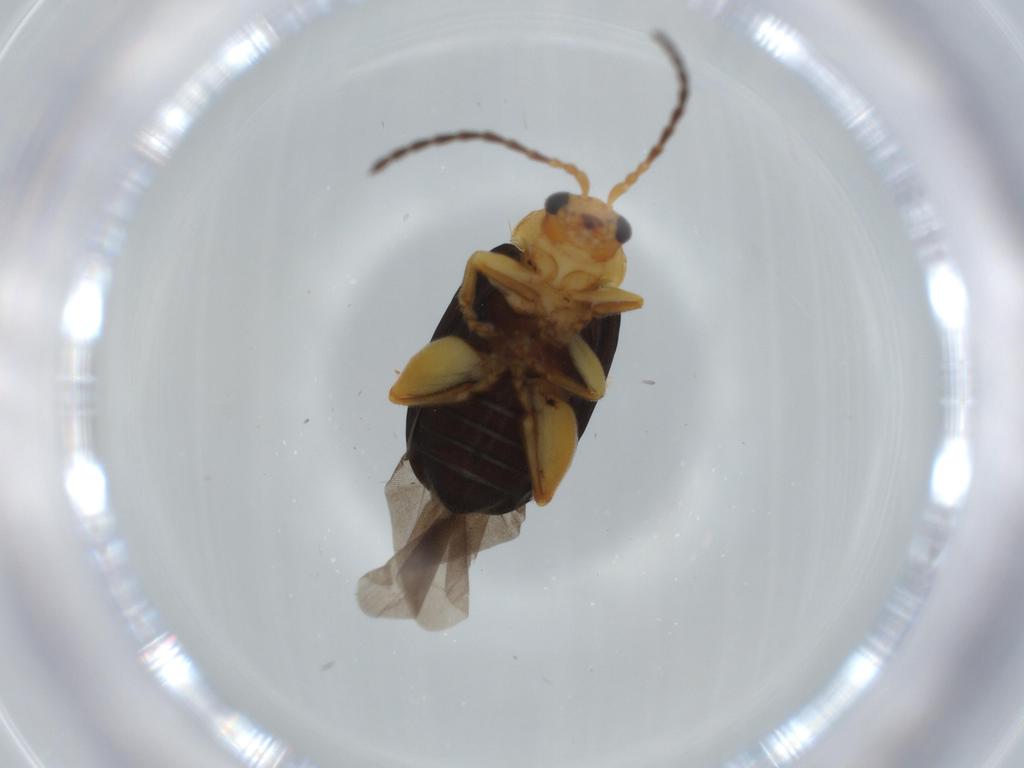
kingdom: Animalia
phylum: Arthropoda
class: Insecta
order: Coleoptera
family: Chrysomelidae
